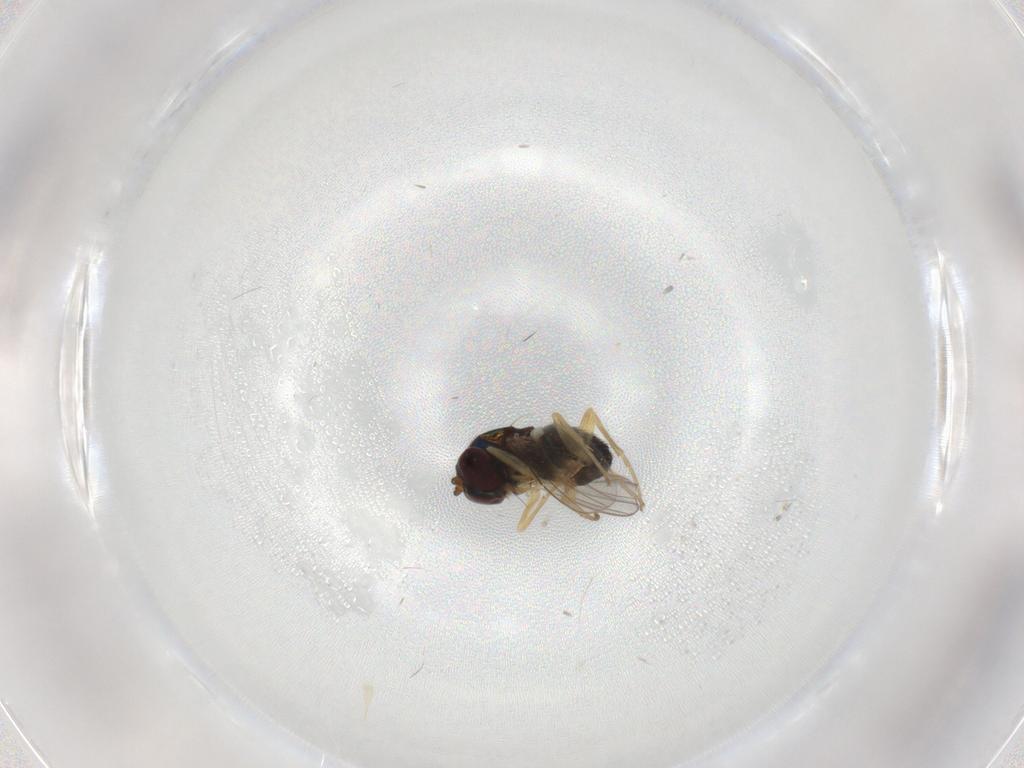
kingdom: Animalia
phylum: Arthropoda
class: Insecta
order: Diptera
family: Dolichopodidae
